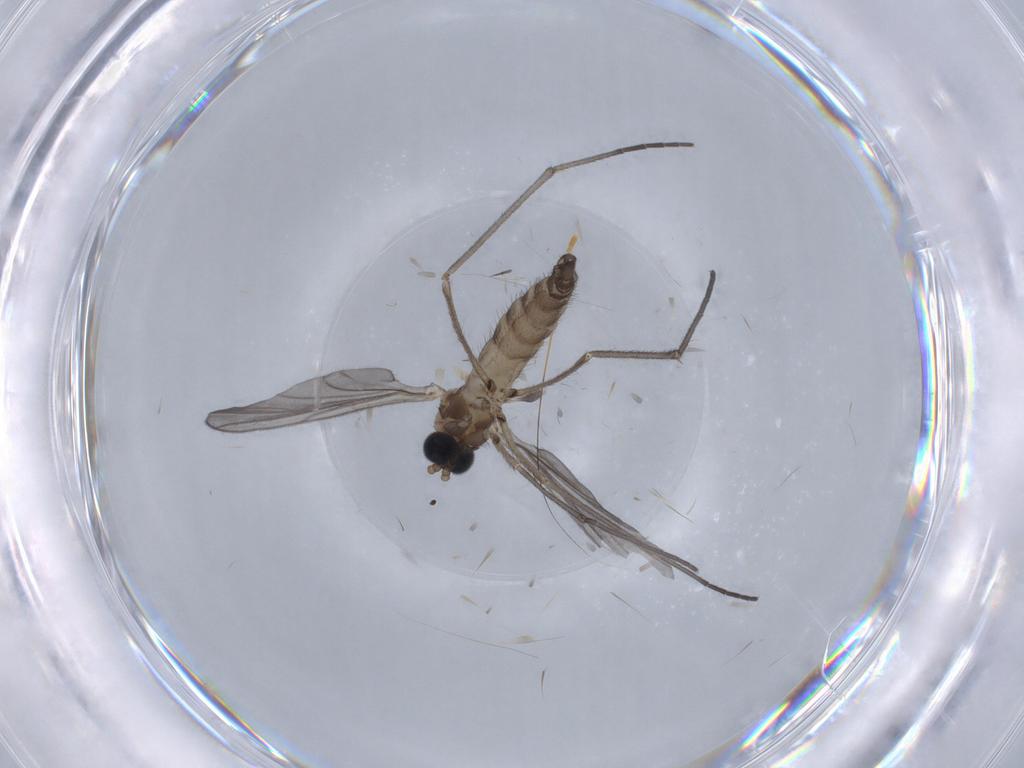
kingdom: Animalia
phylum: Arthropoda
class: Insecta
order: Diptera
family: Sciaridae
